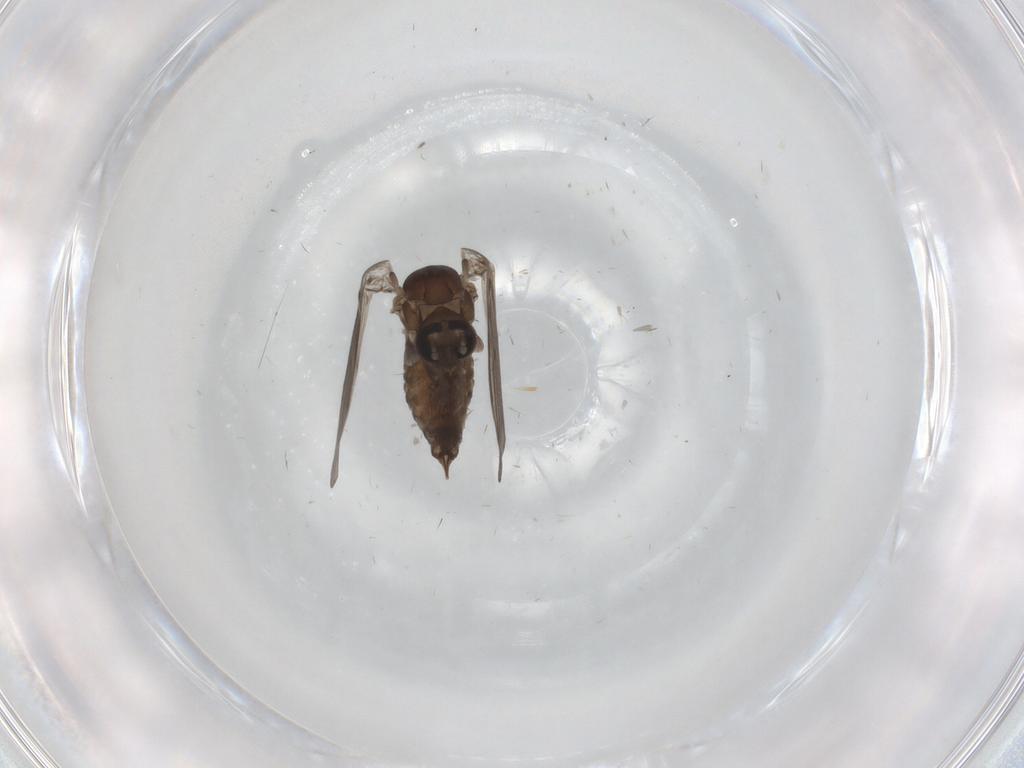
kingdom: Animalia
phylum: Arthropoda
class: Insecta
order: Diptera
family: Psychodidae
